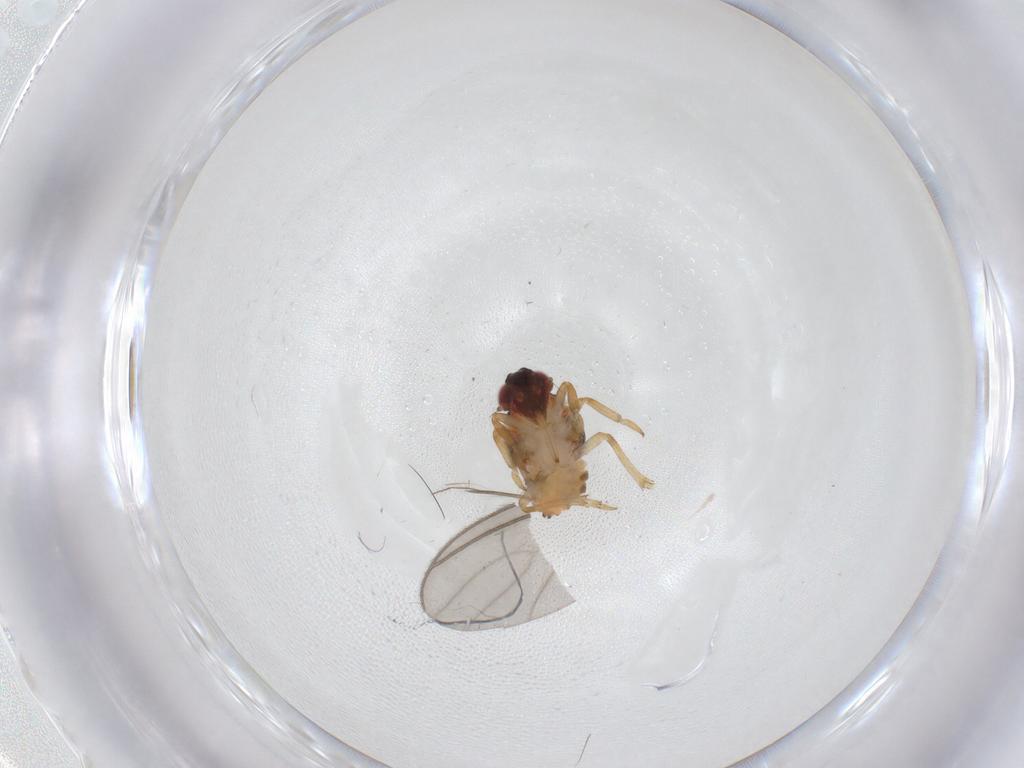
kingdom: Animalia
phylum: Arthropoda
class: Insecta
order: Hemiptera
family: Issidae
